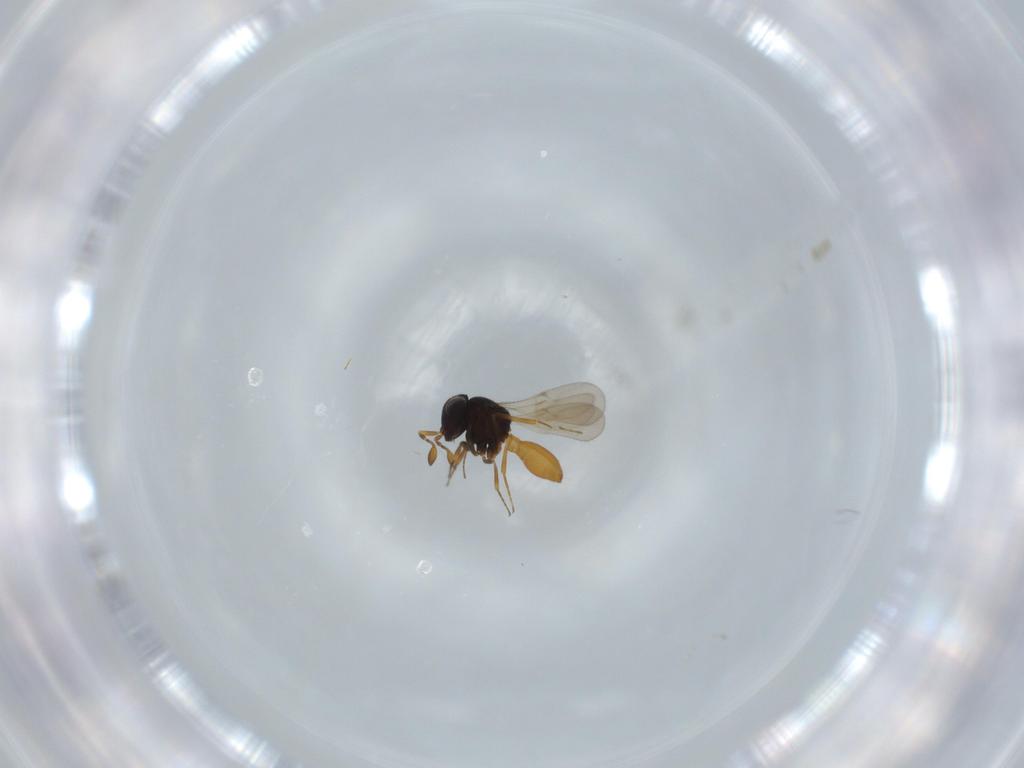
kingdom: Animalia
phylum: Arthropoda
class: Insecta
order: Hymenoptera
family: Scelionidae
